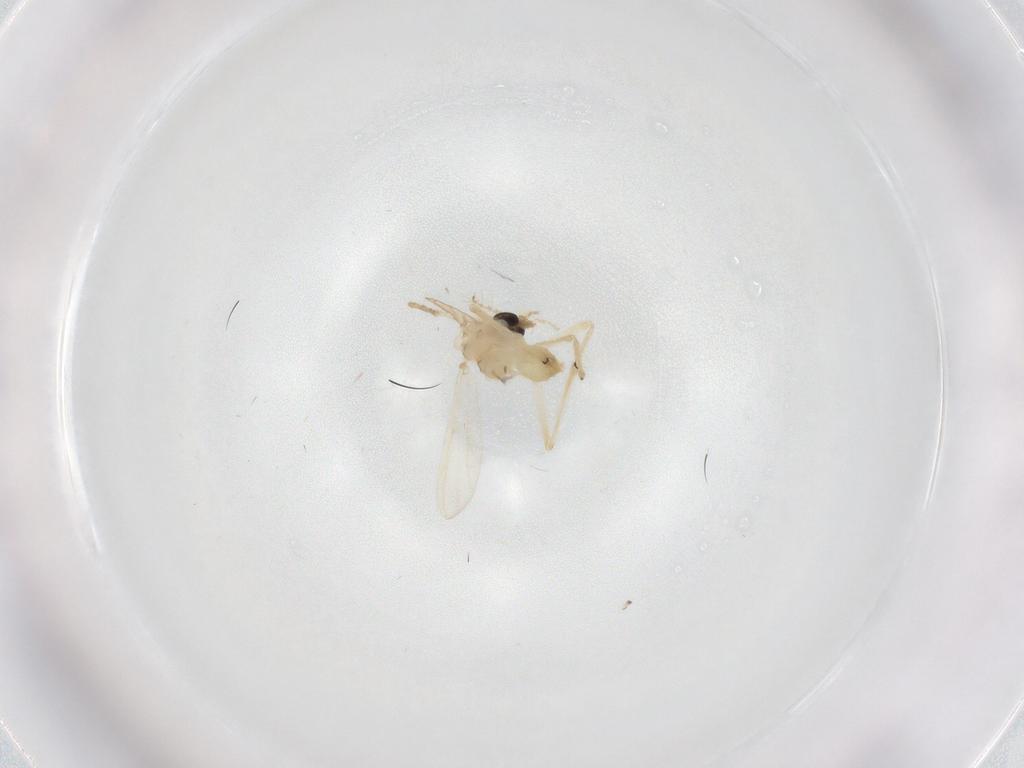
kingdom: Animalia
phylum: Arthropoda
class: Insecta
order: Diptera
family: Chironomidae
